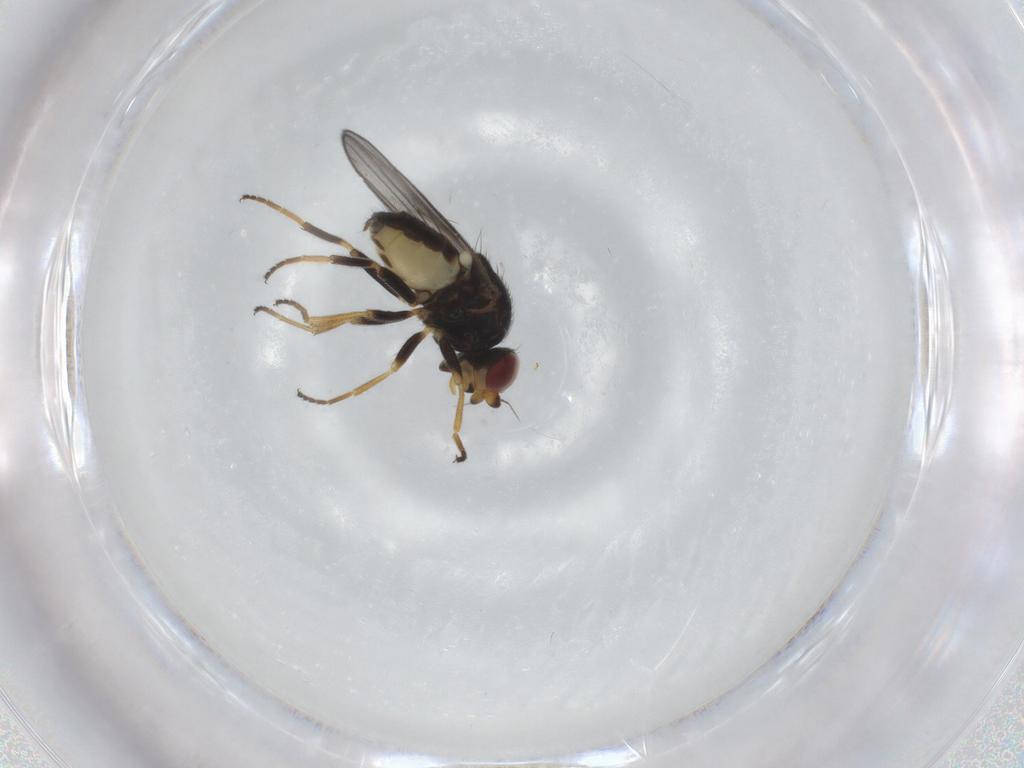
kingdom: Animalia
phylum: Arthropoda
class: Insecta
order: Diptera
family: Chloropidae
